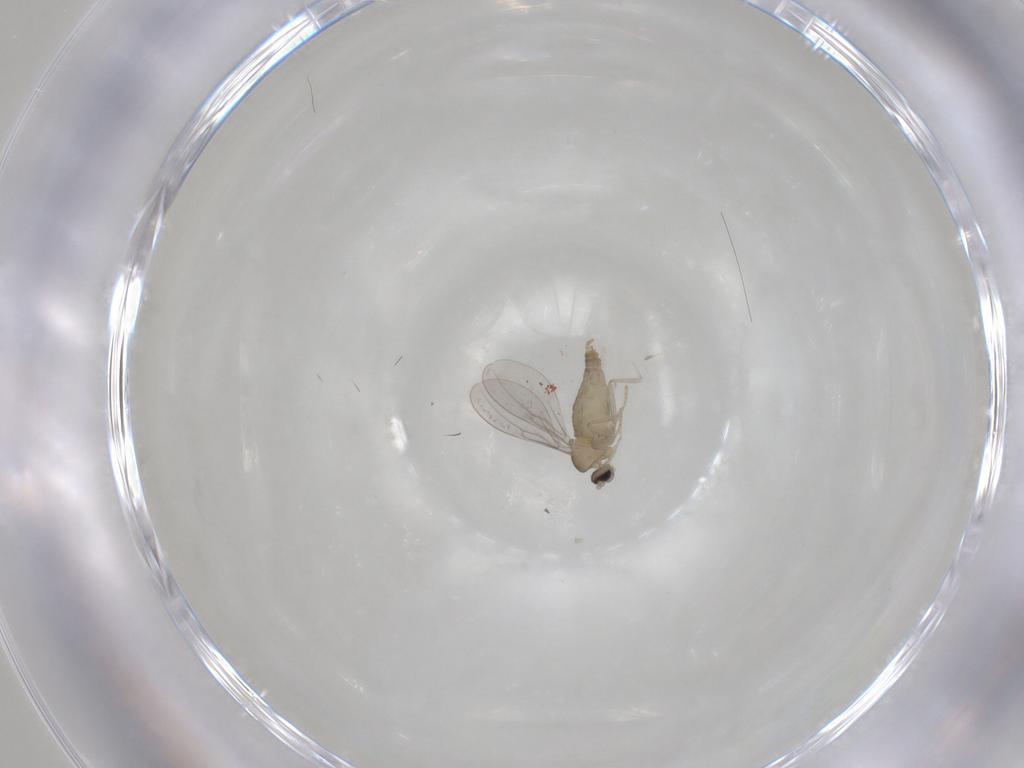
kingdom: Animalia
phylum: Arthropoda
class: Insecta
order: Diptera
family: Cecidomyiidae
